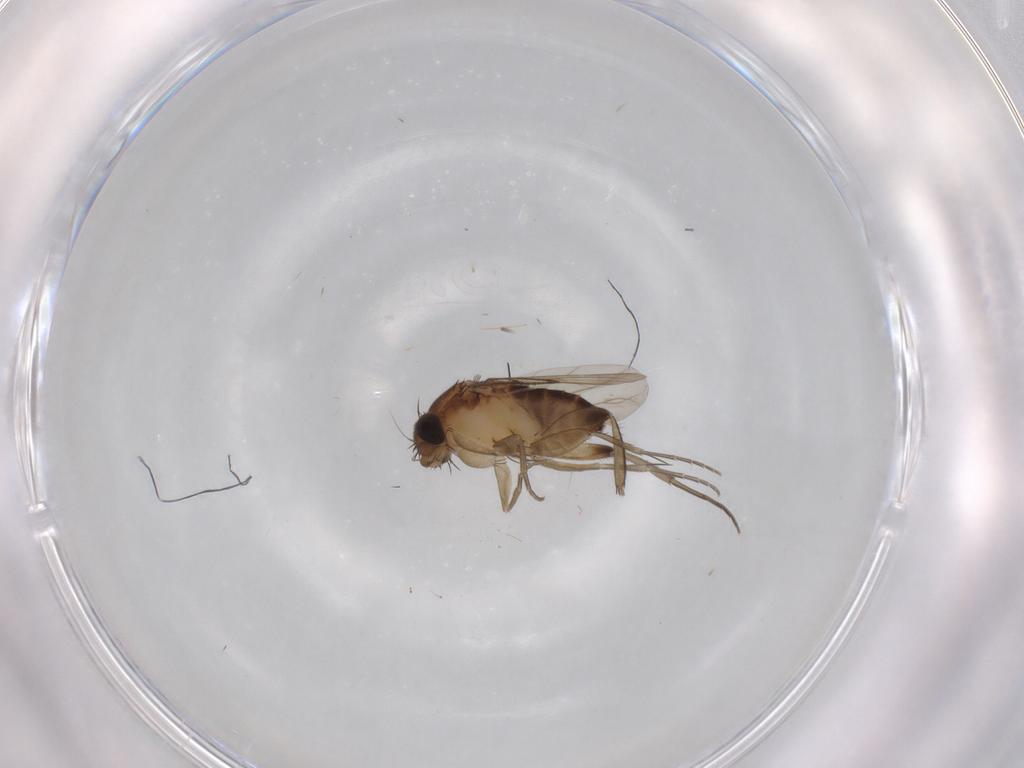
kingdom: Animalia
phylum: Arthropoda
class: Insecta
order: Diptera
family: Phoridae
